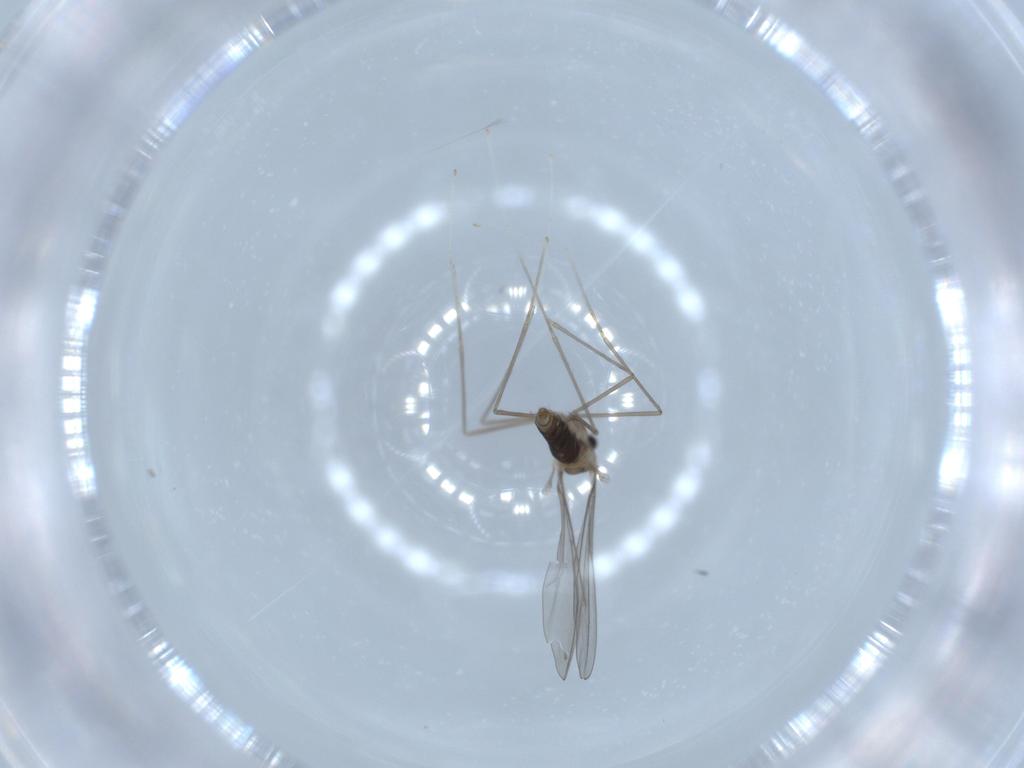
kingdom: Animalia
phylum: Arthropoda
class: Insecta
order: Diptera
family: Cecidomyiidae
